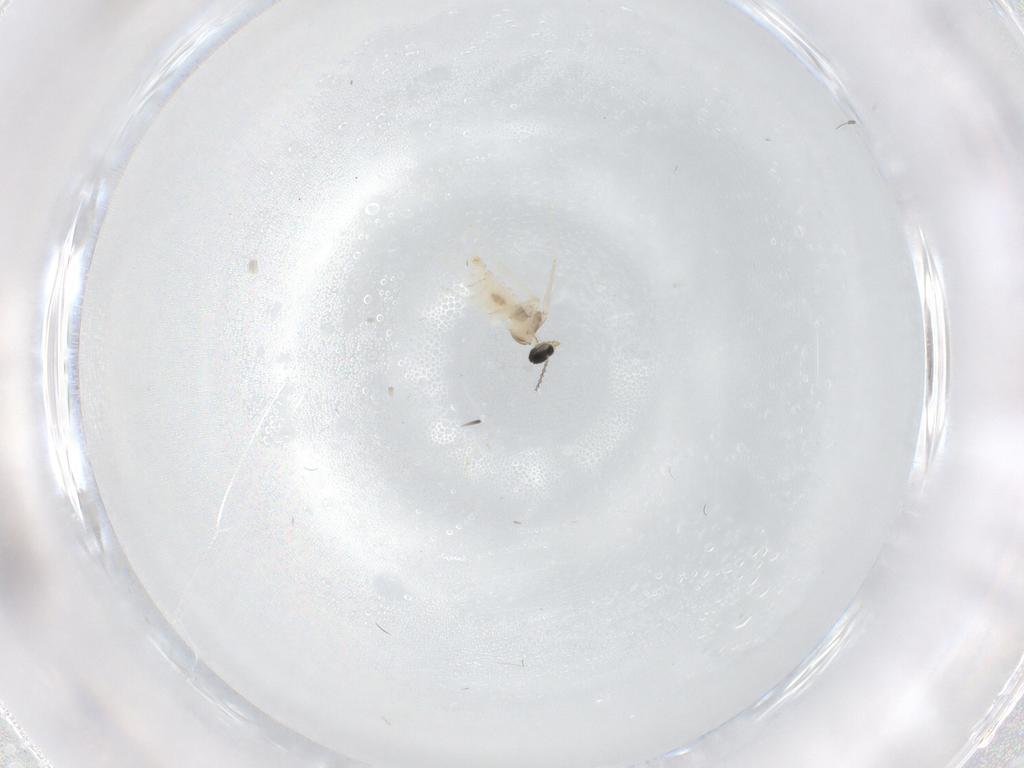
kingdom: Animalia
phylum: Arthropoda
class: Insecta
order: Diptera
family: Cecidomyiidae
